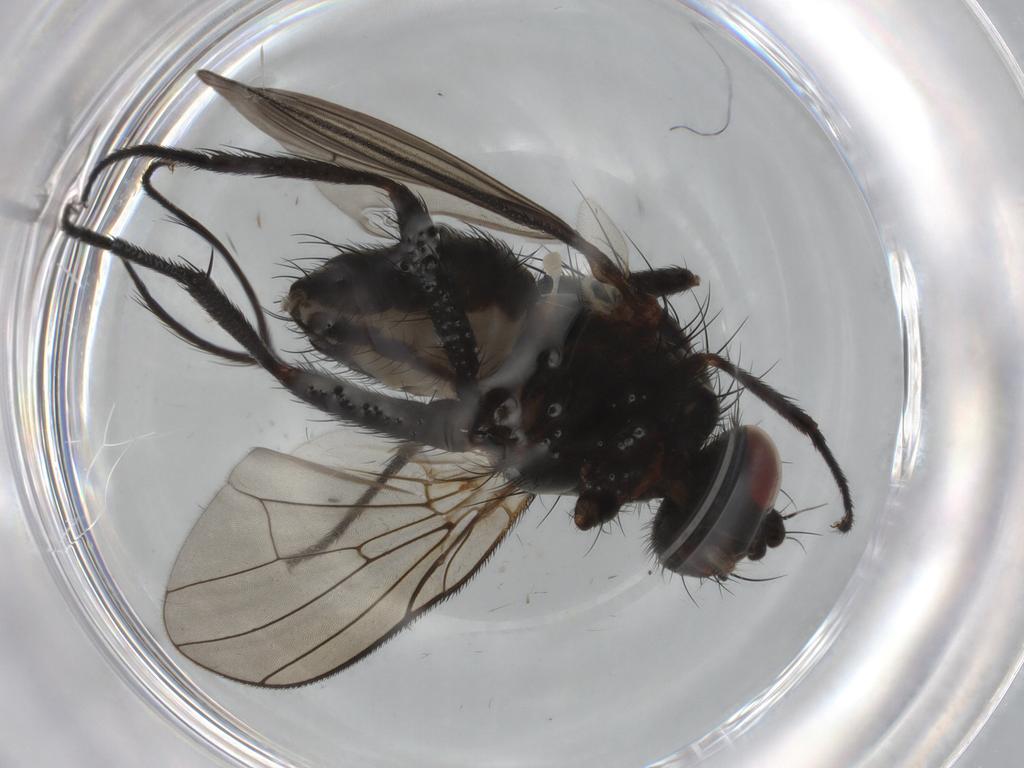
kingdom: Animalia
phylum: Arthropoda
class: Insecta
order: Diptera
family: Anthomyiidae
